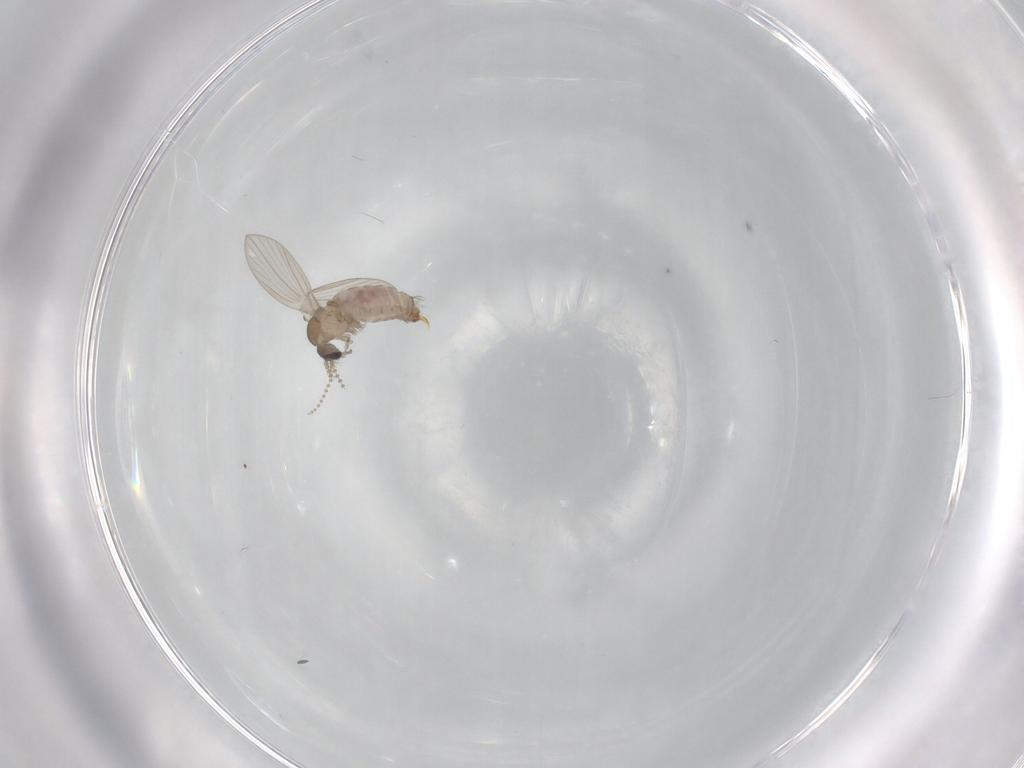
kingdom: Animalia
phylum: Arthropoda
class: Insecta
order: Diptera
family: Psychodidae
